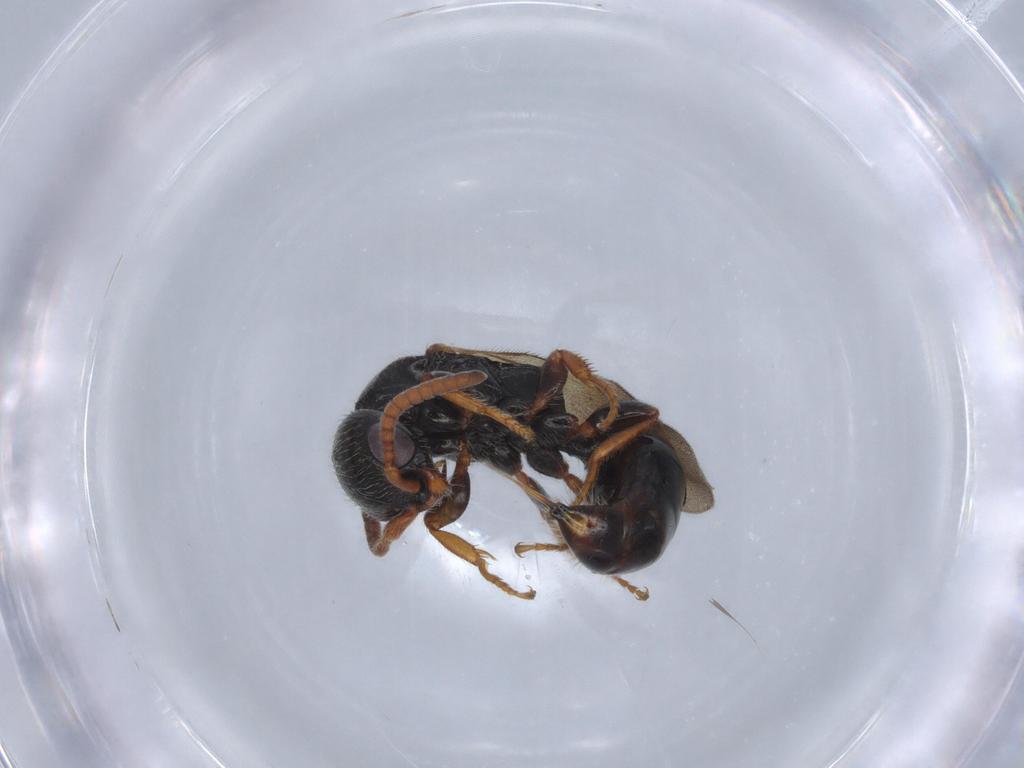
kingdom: Animalia
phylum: Arthropoda
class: Insecta
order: Hymenoptera
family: Bethylidae
